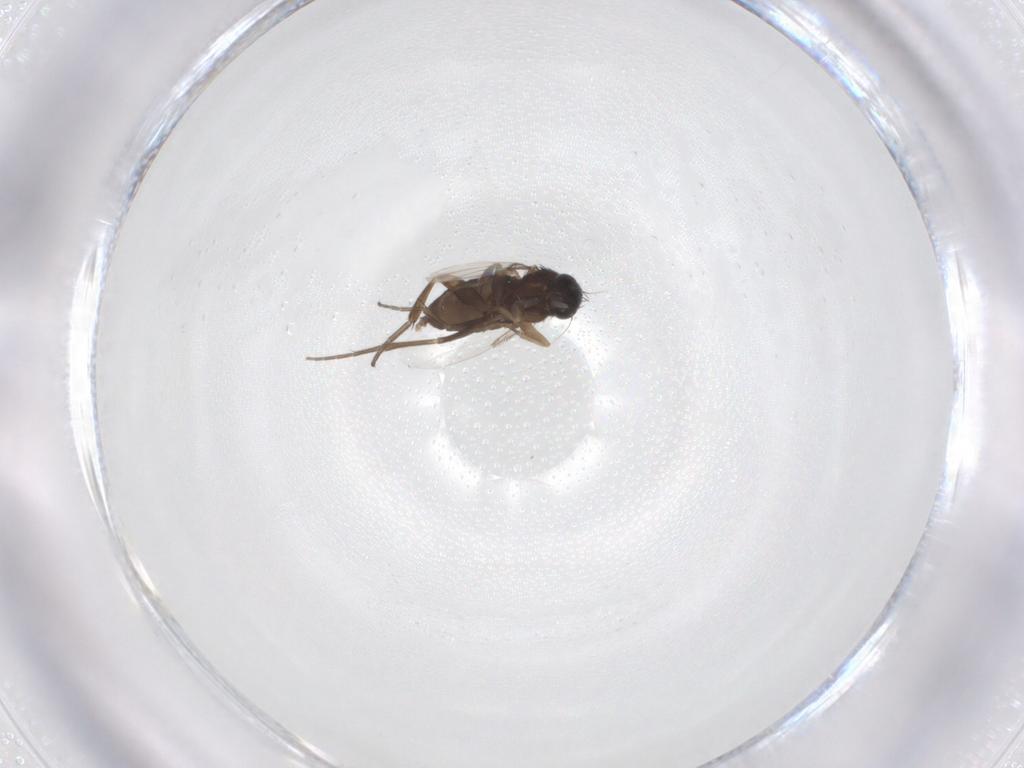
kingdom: Animalia
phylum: Arthropoda
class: Insecta
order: Diptera
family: Phoridae
